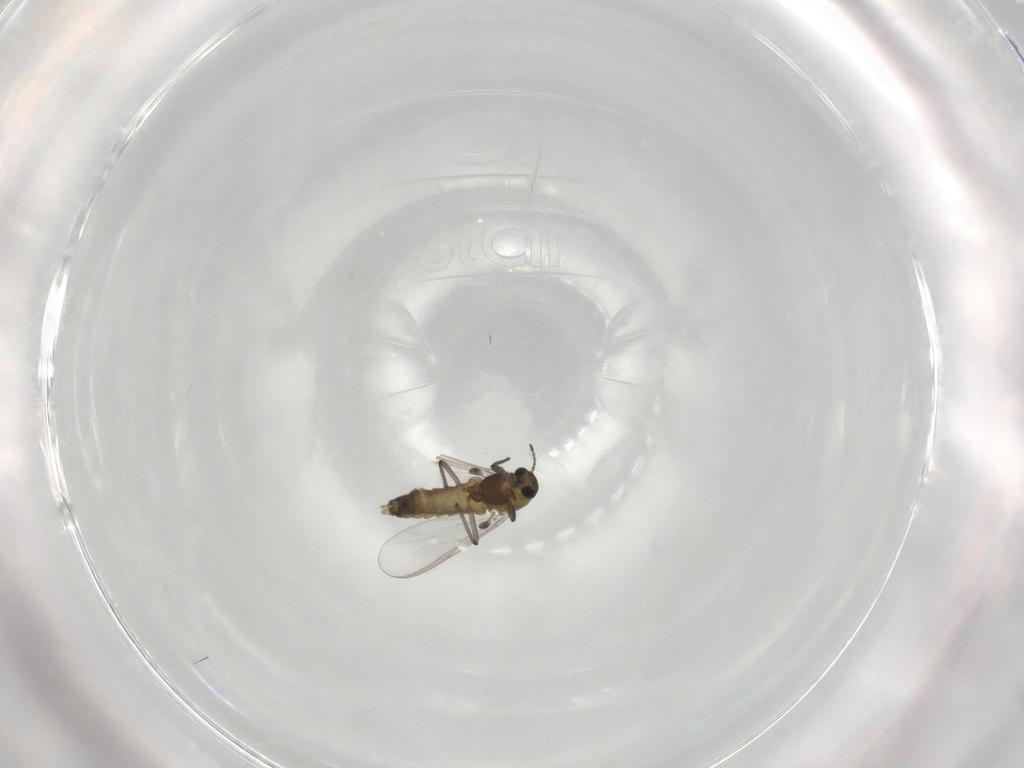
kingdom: Animalia
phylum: Arthropoda
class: Insecta
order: Diptera
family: Chironomidae
